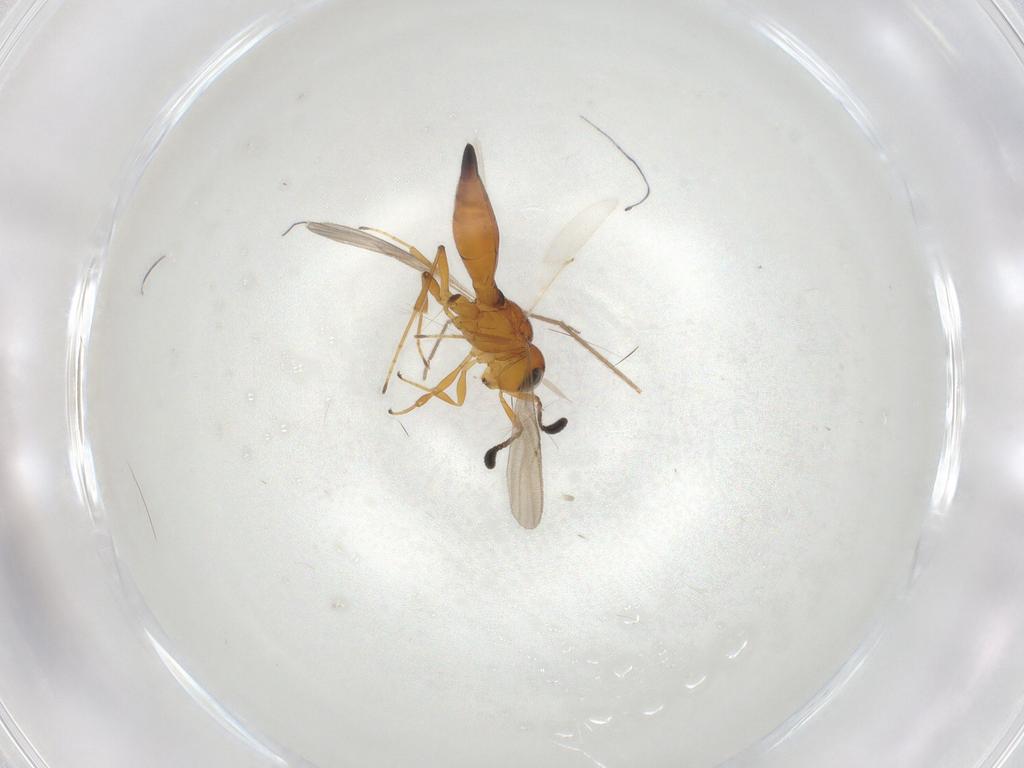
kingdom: Animalia
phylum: Arthropoda
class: Insecta
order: Hymenoptera
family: Scelionidae
